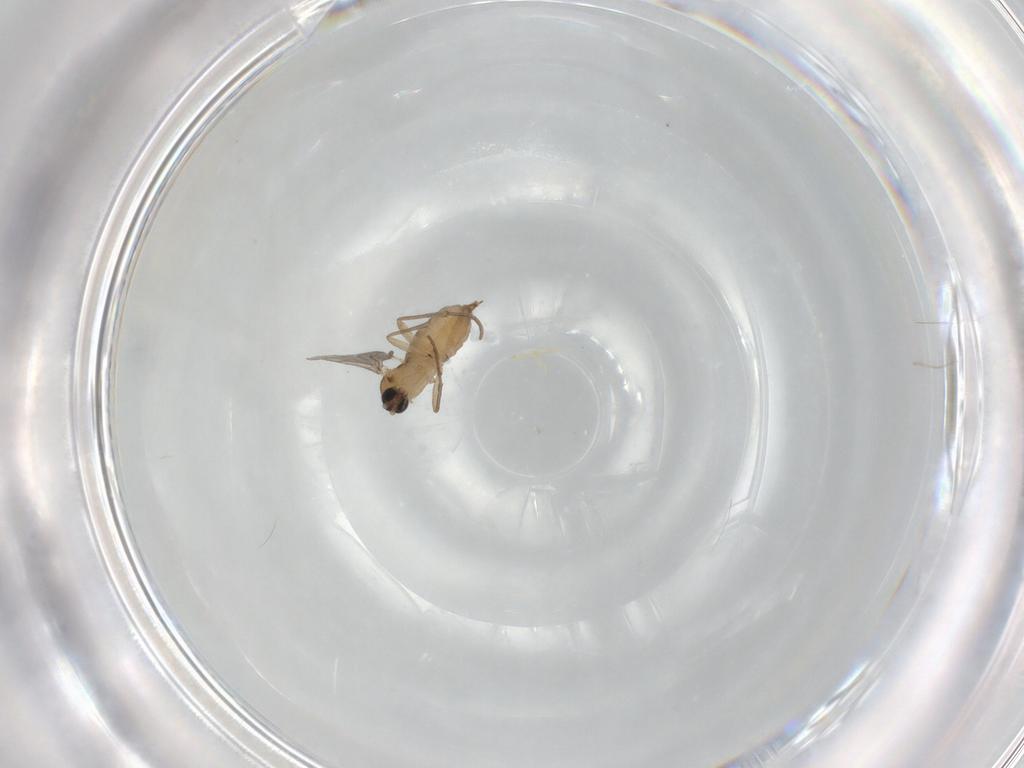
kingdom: Animalia
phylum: Arthropoda
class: Insecta
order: Diptera
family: Sciaridae
